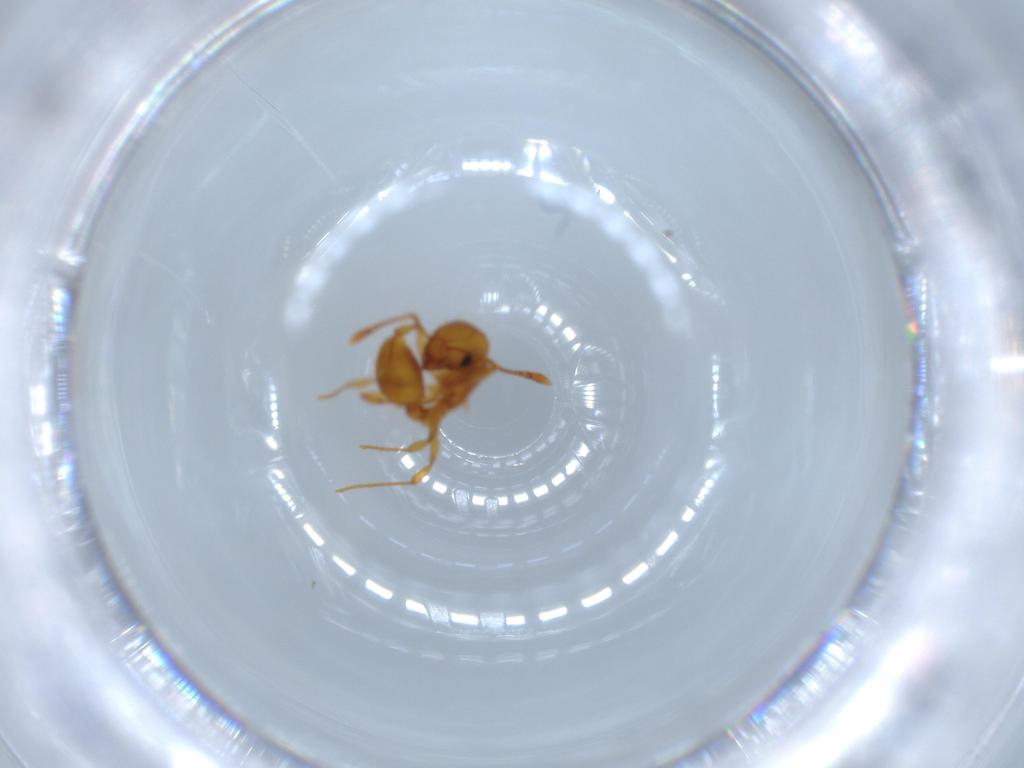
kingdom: Animalia
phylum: Arthropoda
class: Insecta
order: Hymenoptera
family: Formicidae
